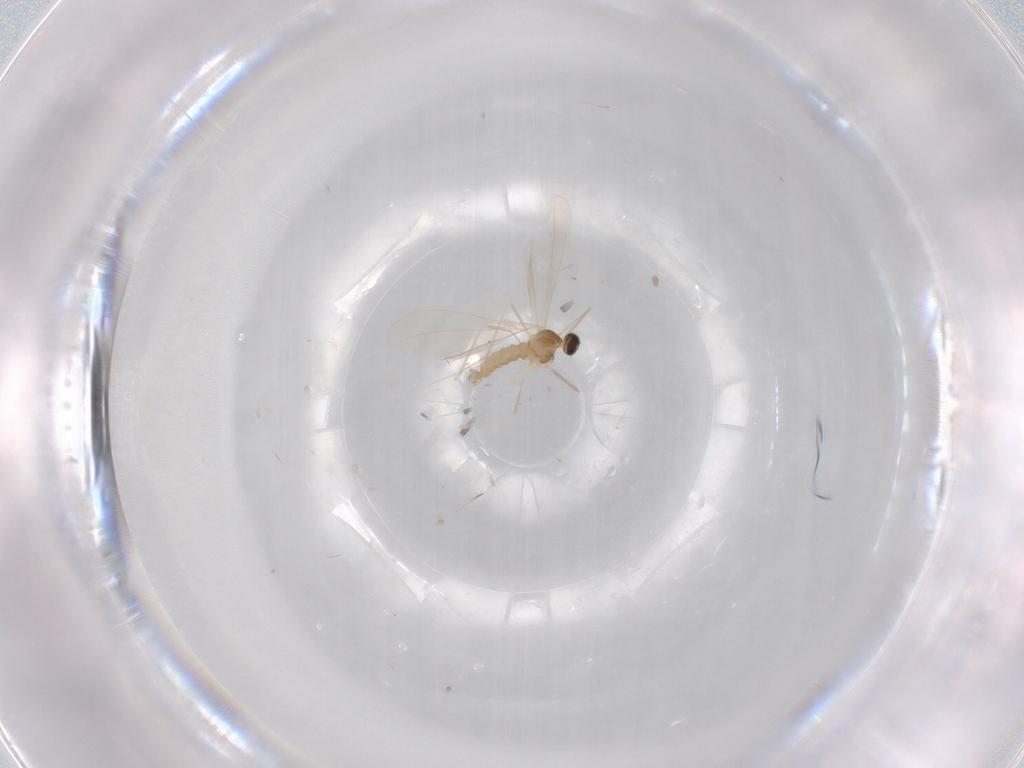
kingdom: Animalia
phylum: Arthropoda
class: Insecta
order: Diptera
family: Cecidomyiidae
